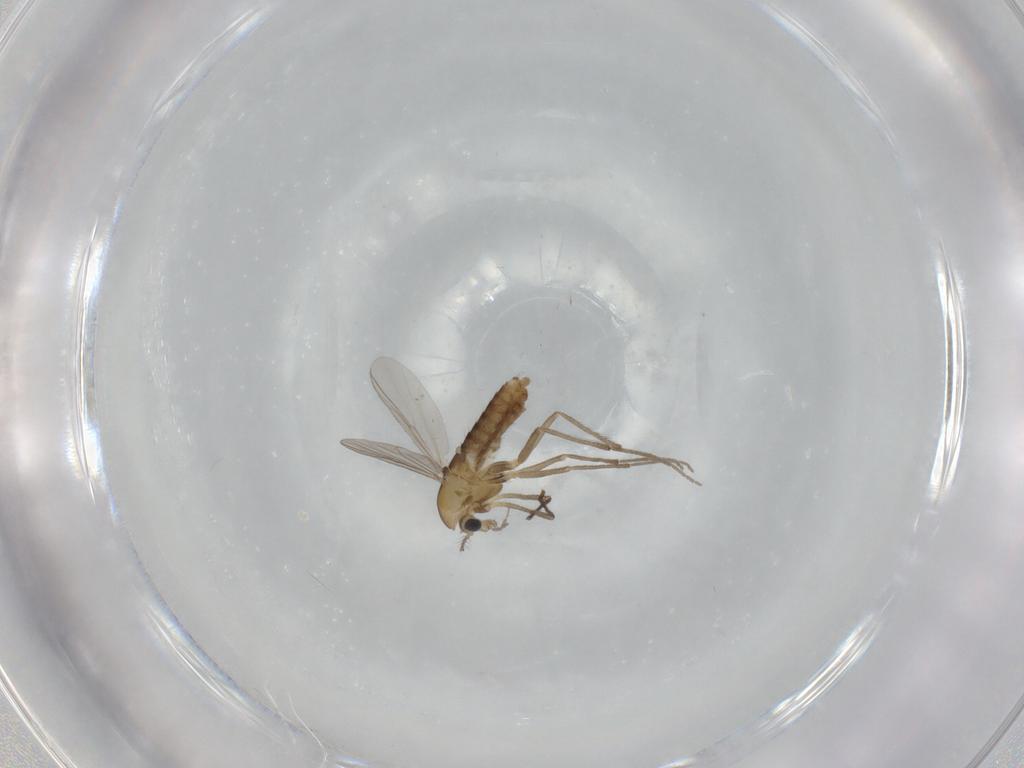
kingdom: Animalia
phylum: Arthropoda
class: Insecta
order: Diptera
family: Chironomidae
